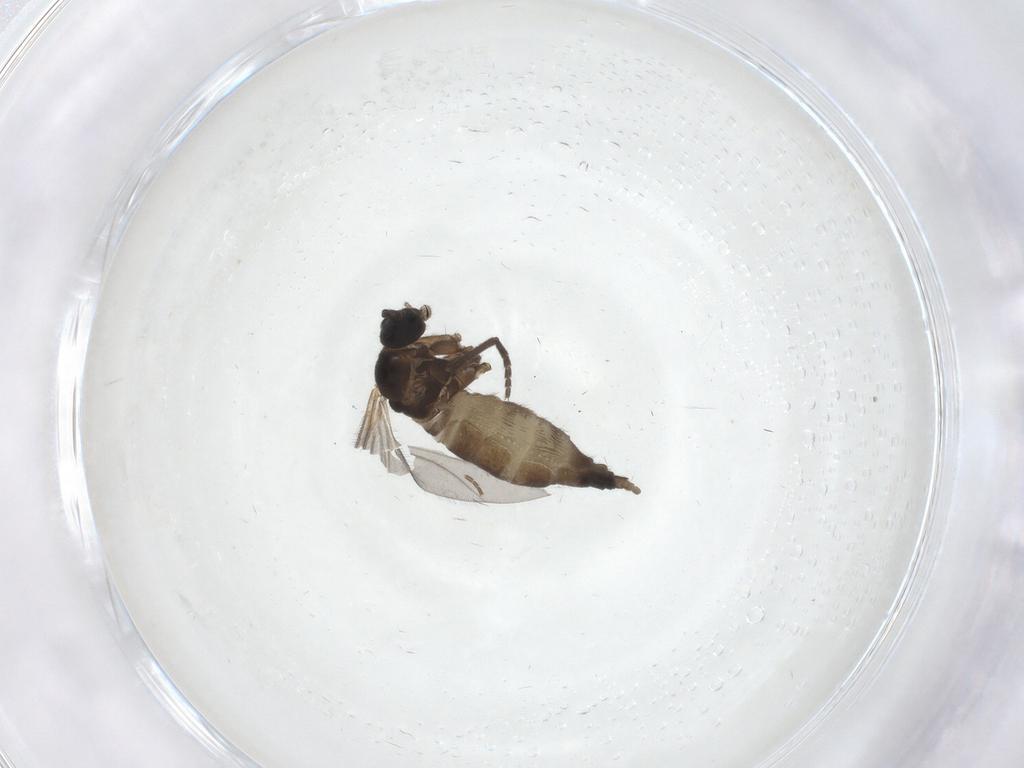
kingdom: Animalia
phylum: Arthropoda
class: Insecta
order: Diptera
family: Sciaridae
